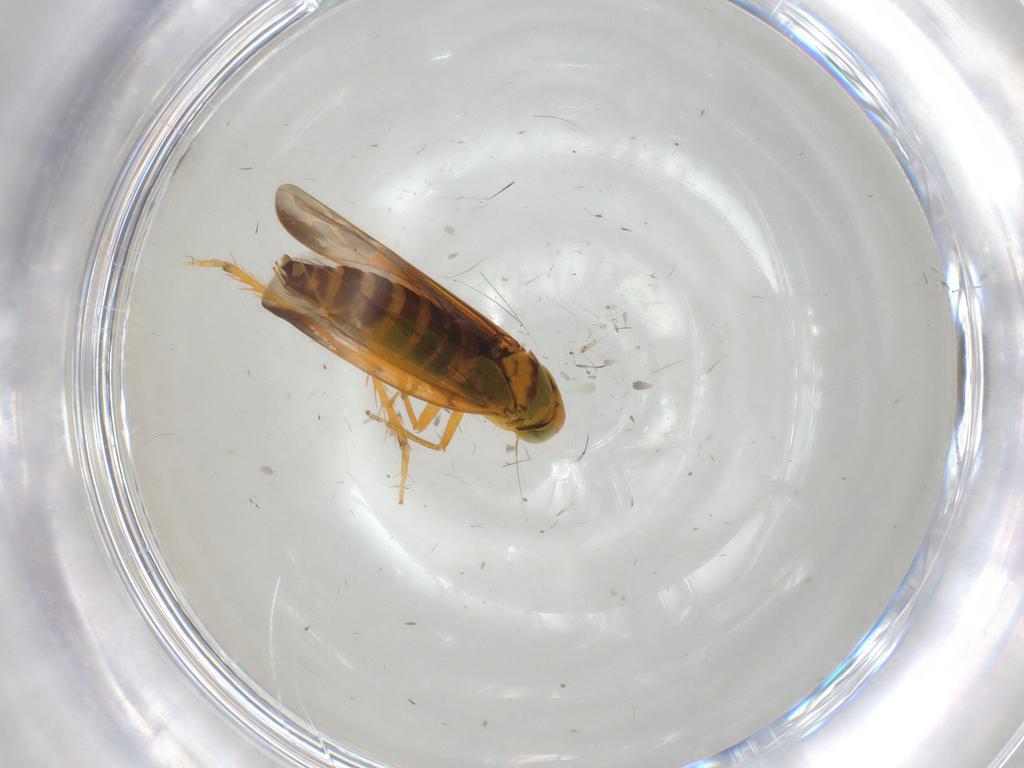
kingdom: Animalia
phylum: Arthropoda
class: Insecta
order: Hemiptera
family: Cicadellidae
